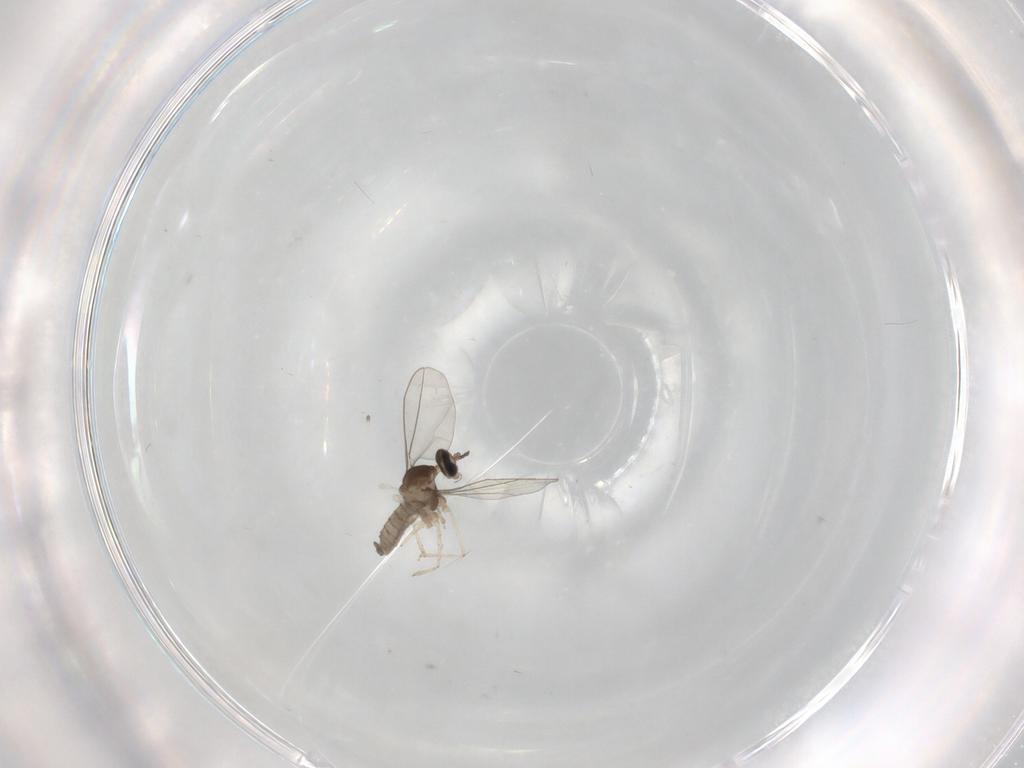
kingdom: Animalia
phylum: Arthropoda
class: Insecta
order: Diptera
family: Cecidomyiidae
